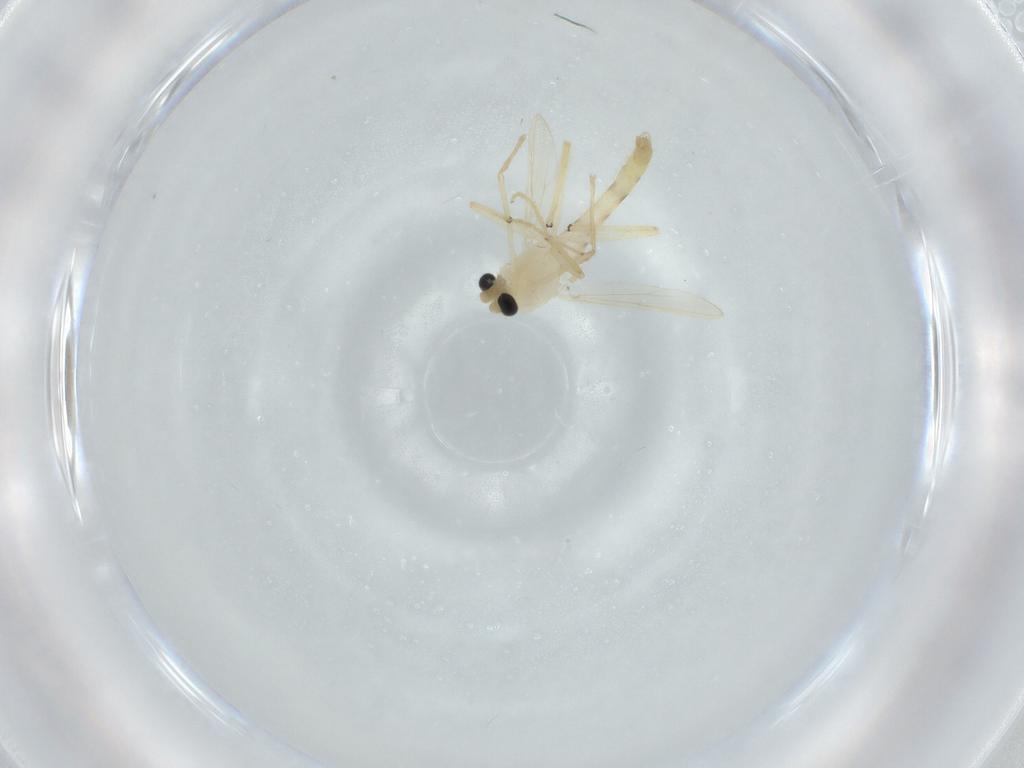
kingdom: Animalia
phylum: Arthropoda
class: Insecta
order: Diptera
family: Chironomidae
